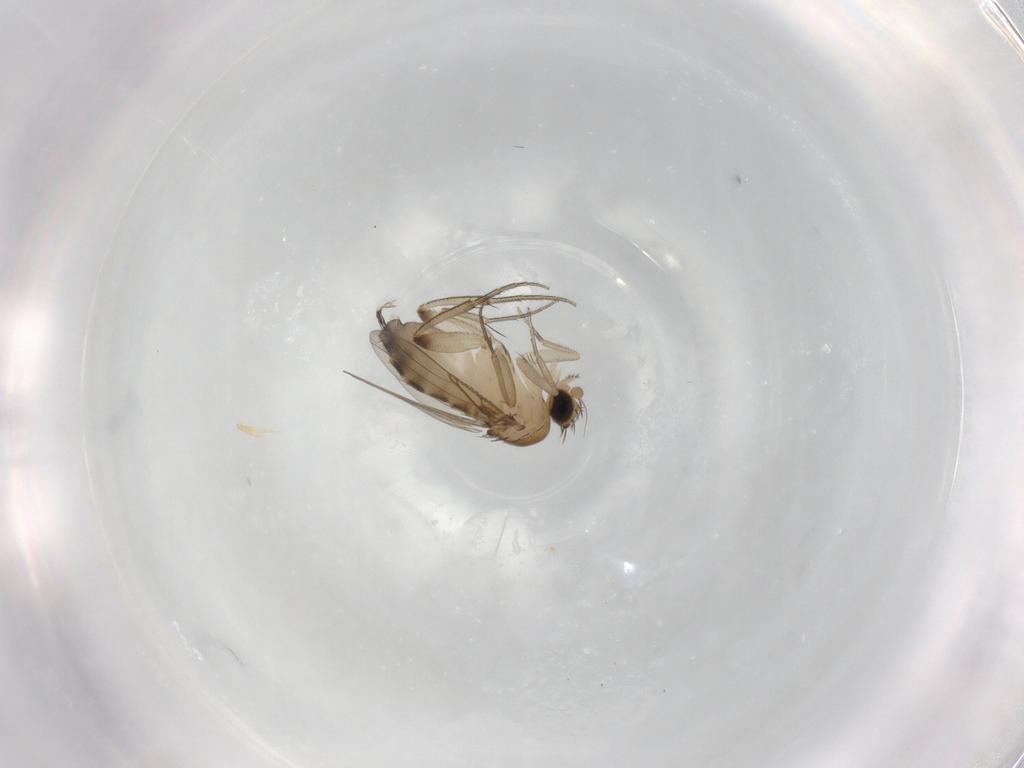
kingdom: Animalia
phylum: Arthropoda
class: Insecta
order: Diptera
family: Phoridae
